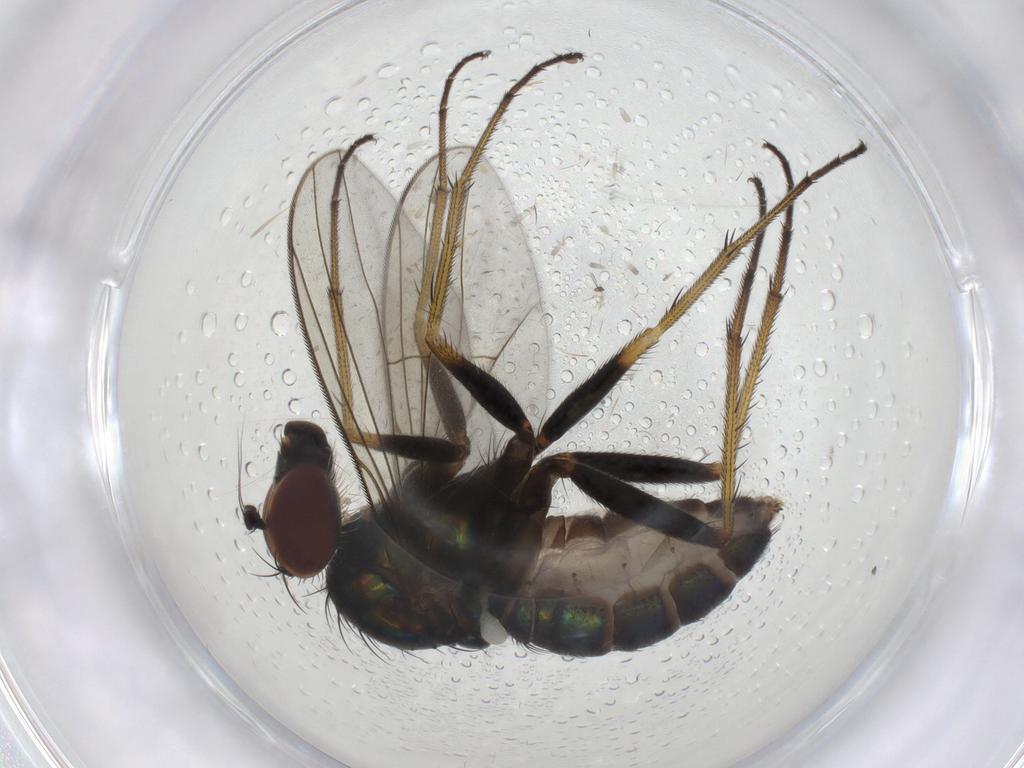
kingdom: Animalia
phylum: Arthropoda
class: Insecta
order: Diptera
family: Dolichopodidae
